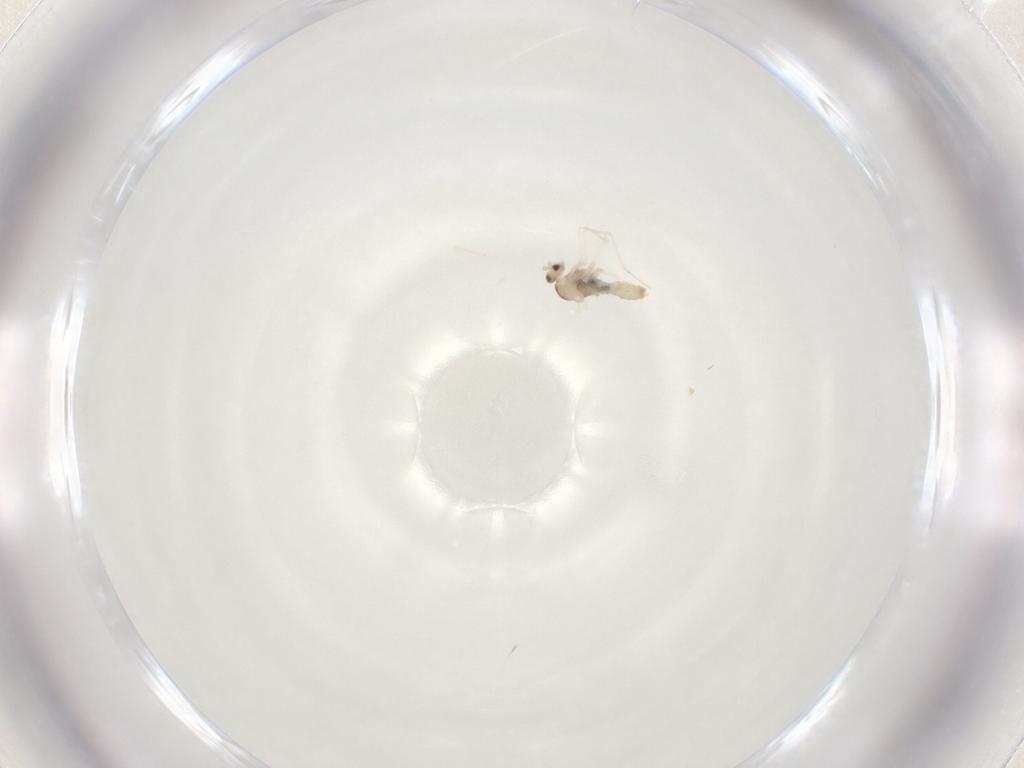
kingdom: Animalia
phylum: Arthropoda
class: Insecta
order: Diptera
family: Cecidomyiidae
